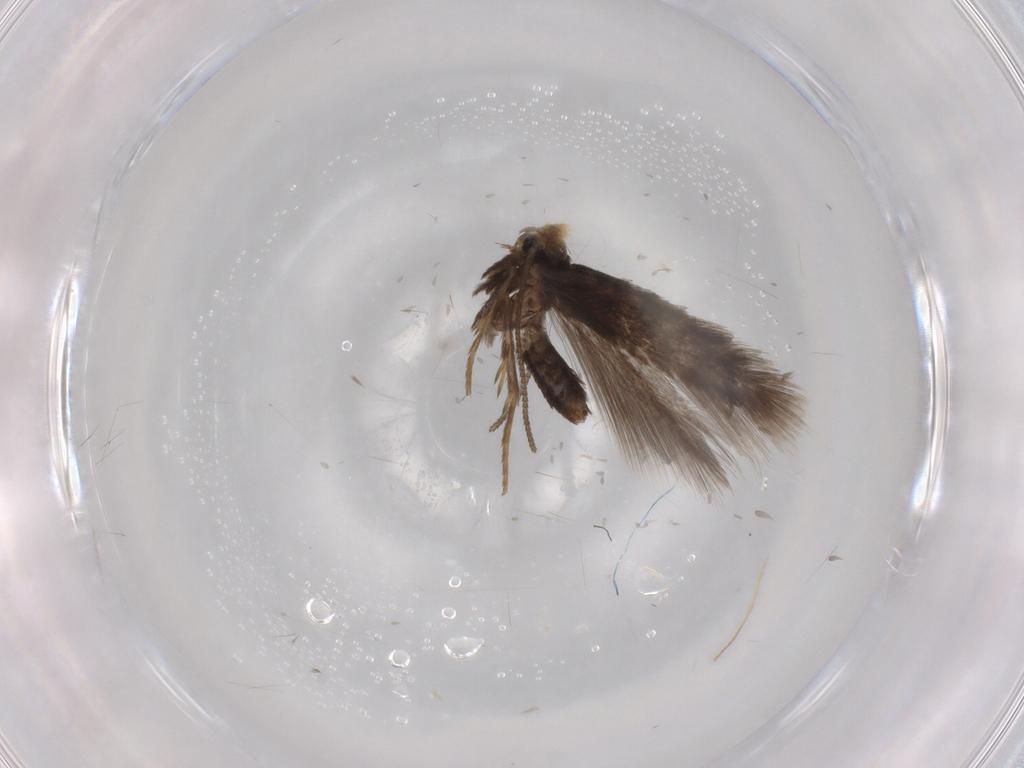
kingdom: Animalia
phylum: Arthropoda
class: Insecta
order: Lepidoptera
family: Nepticulidae
